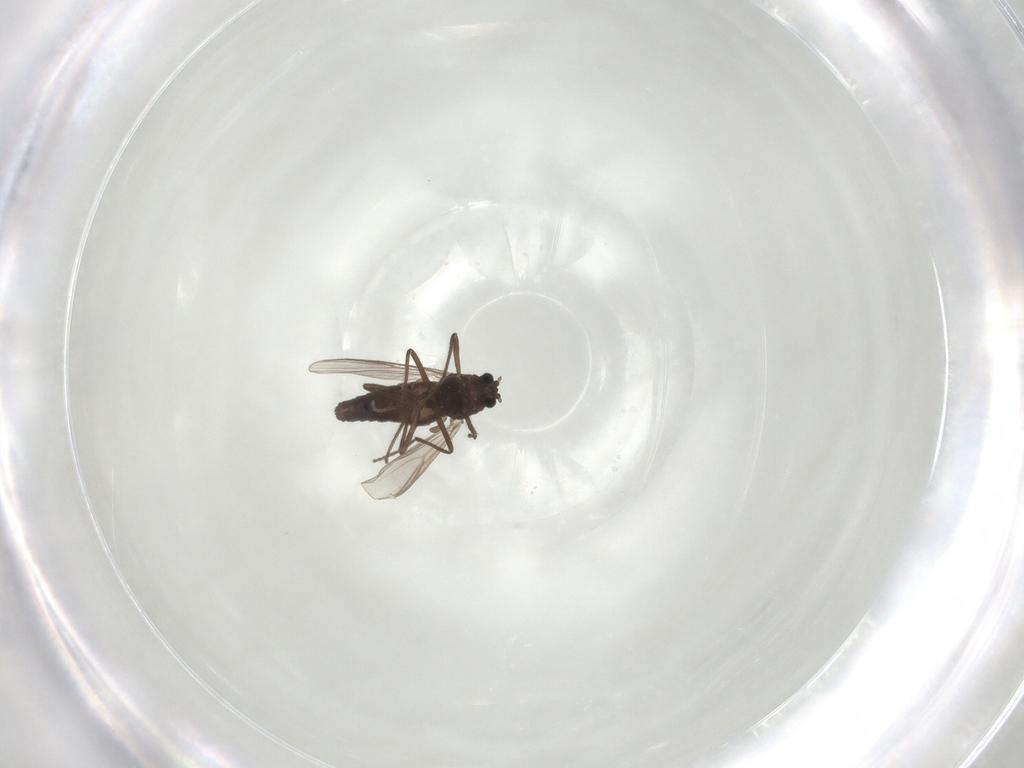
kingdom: Animalia
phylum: Arthropoda
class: Insecta
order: Diptera
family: Chironomidae
